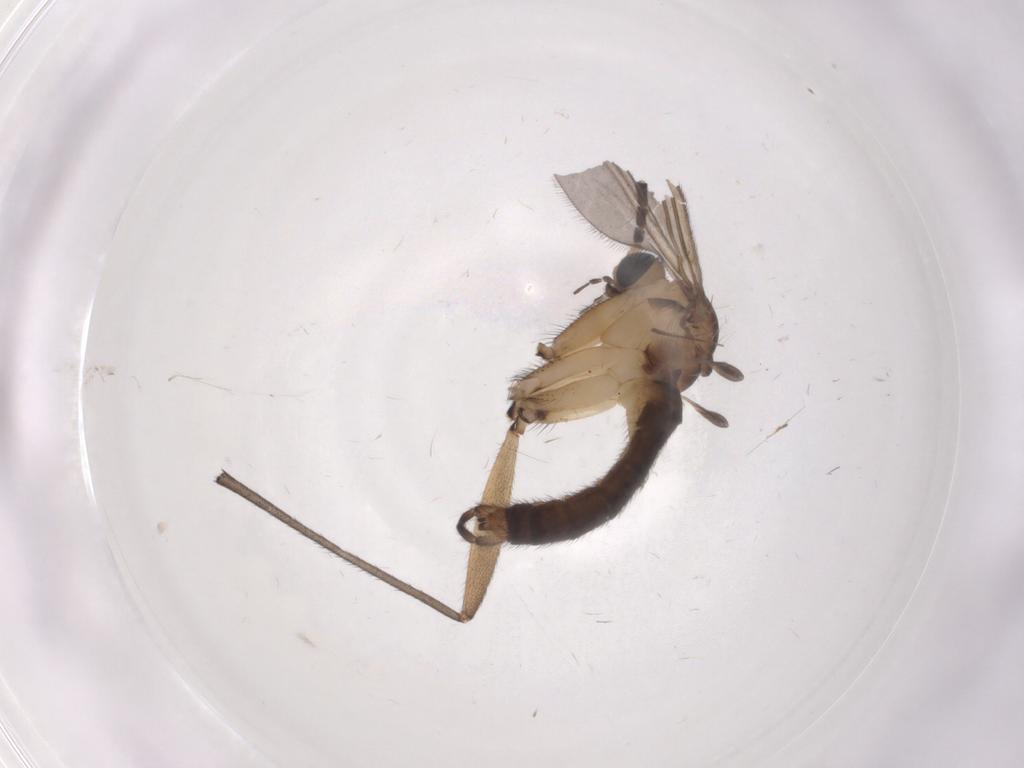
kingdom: Animalia
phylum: Arthropoda
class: Insecta
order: Diptera
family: Sciaridae
